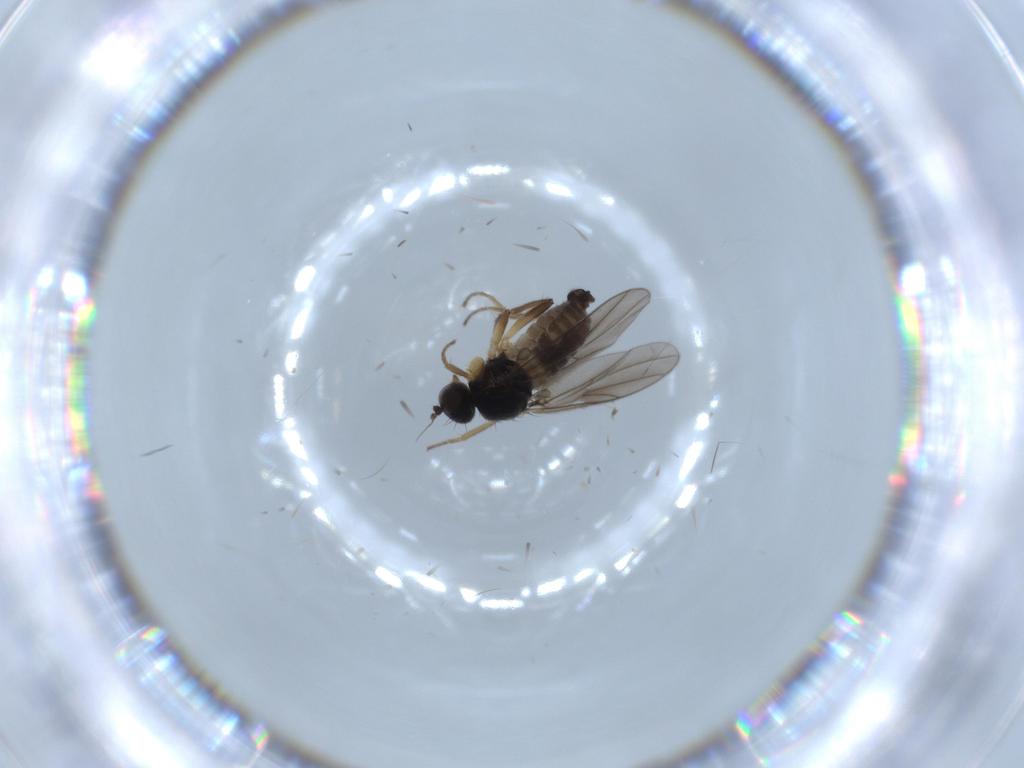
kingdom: Animalia
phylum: Arthropoda
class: Insecta
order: Diptera
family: Hybotidae
